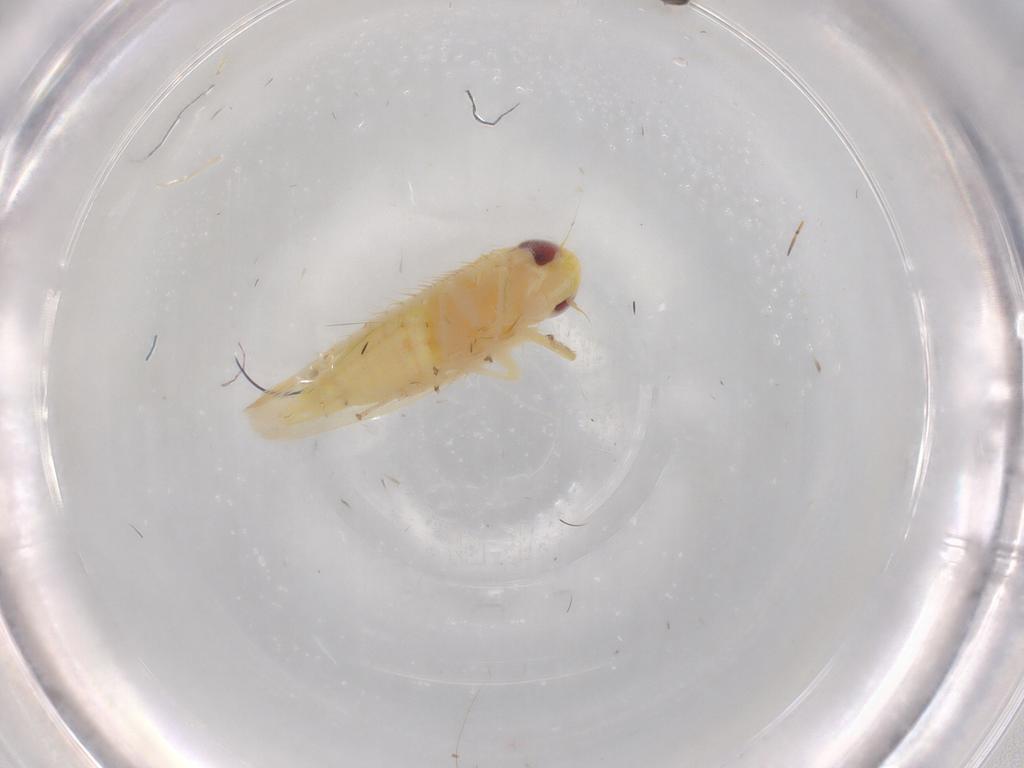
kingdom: Animalia
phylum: Arthropoda
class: Insecta
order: Hemiptera
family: Cicadellidae
